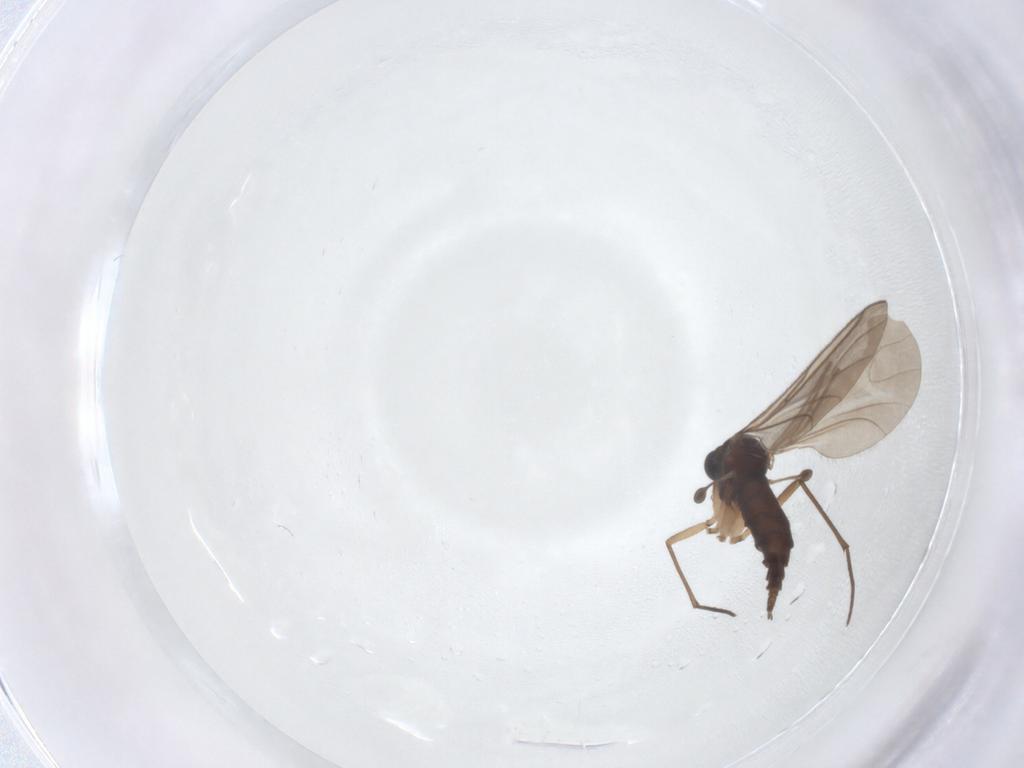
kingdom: Animalia
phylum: Arthropoda
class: Insecta
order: Diptera
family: Sciaridae
